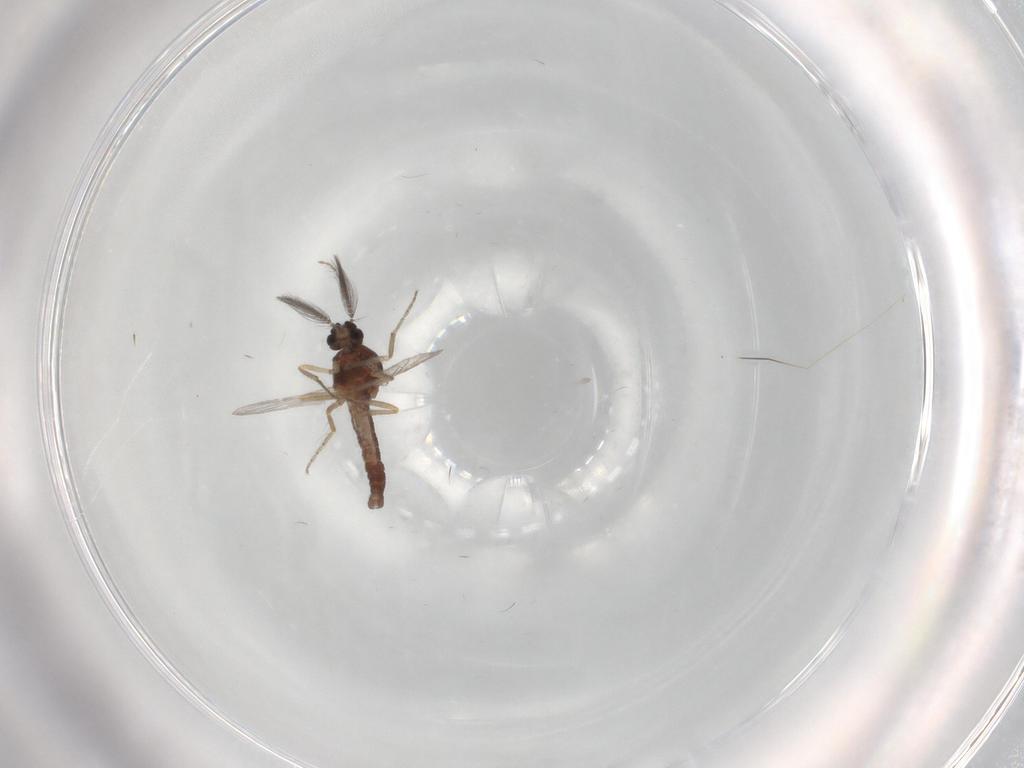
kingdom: Animalia
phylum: Arthropoda
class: Insecta
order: Diptera
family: Ceratopogonidae
